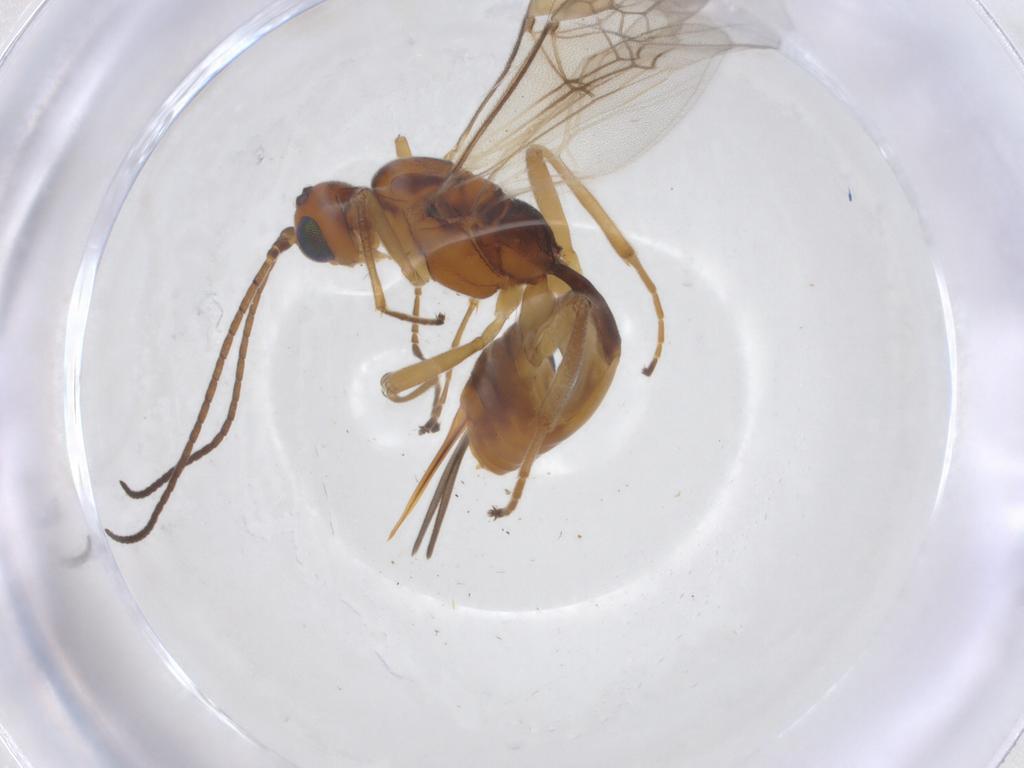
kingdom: Animalia
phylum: Arthropoda
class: Insecta
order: Hymenoptera
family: Braconidae
